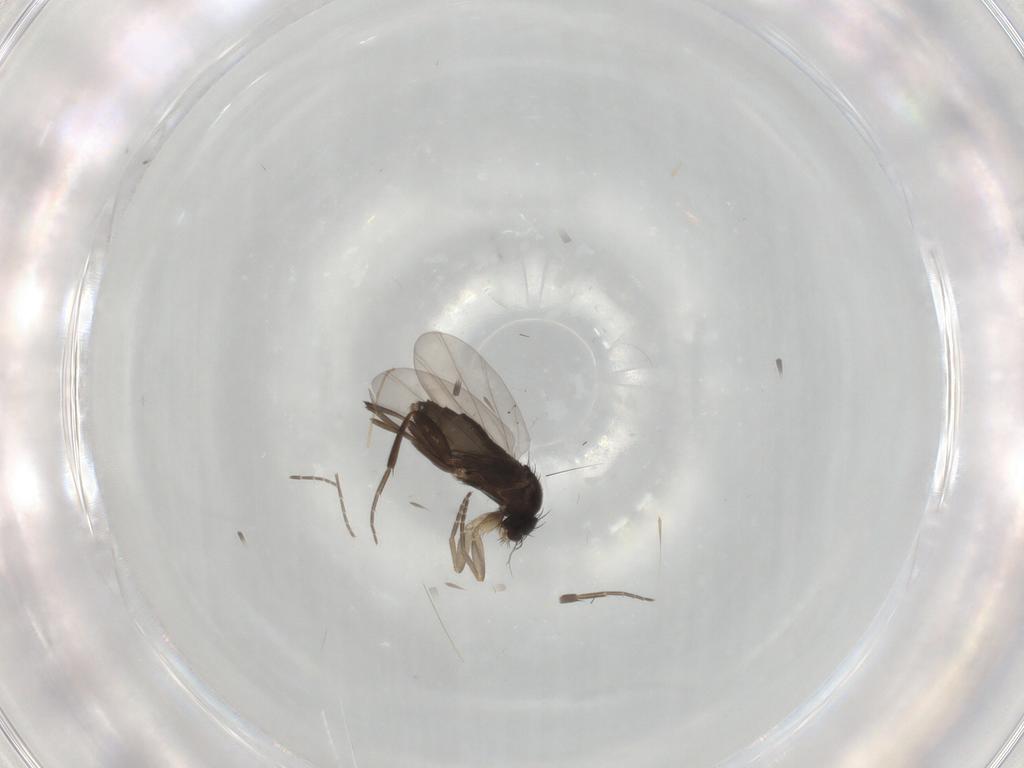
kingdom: Animalia
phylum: Arthropoda
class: Insecta
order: Diptera
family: Phoridae
